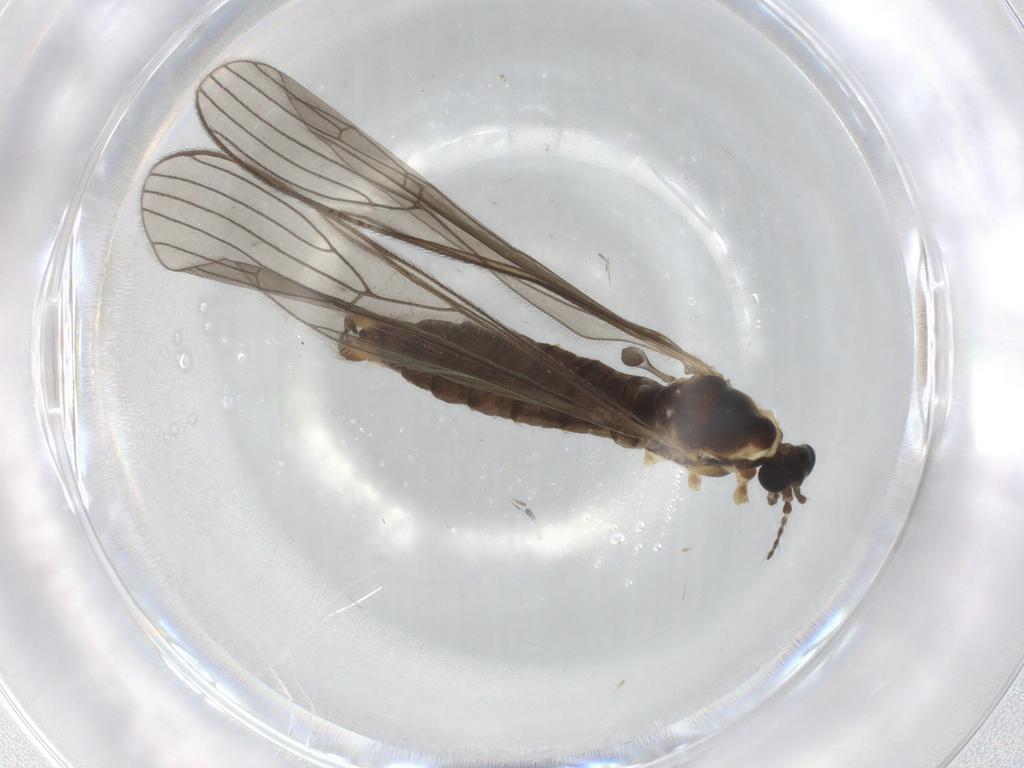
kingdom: Animalia
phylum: Arthropoda
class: Insecta
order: Diptera
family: Limoniidae
